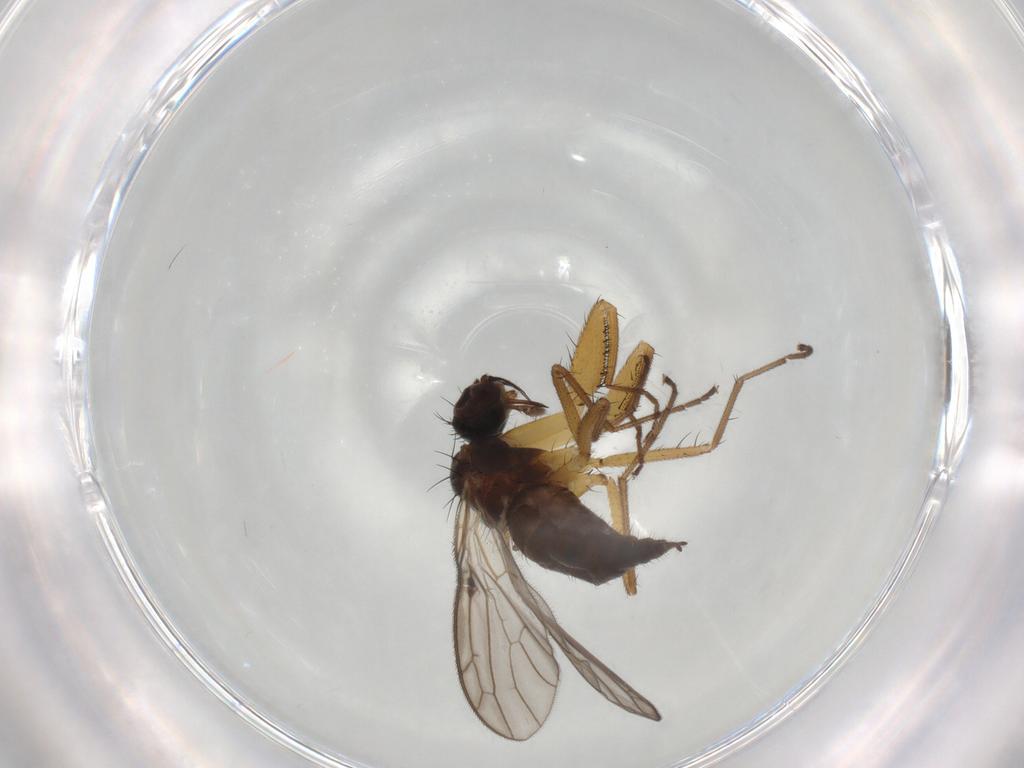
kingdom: Animalia
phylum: Arthropoda
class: Insecta
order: Diptera
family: Empididae
